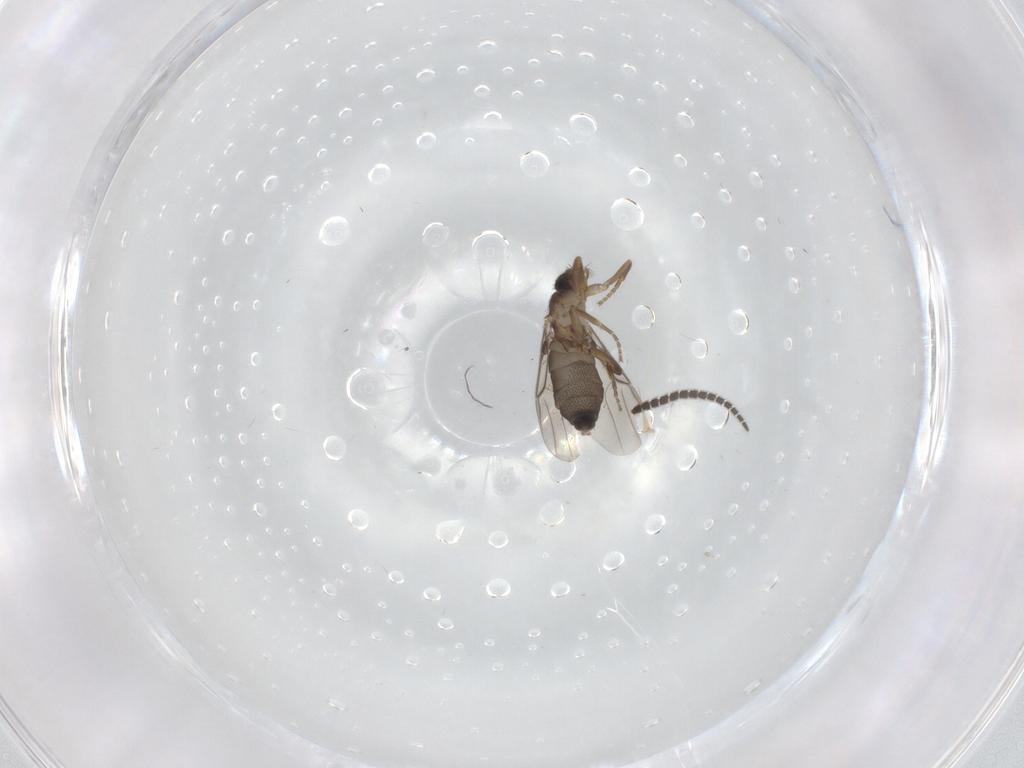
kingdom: Animalia
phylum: Arthropoda
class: Insecta
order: Diptera
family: Phoridae
